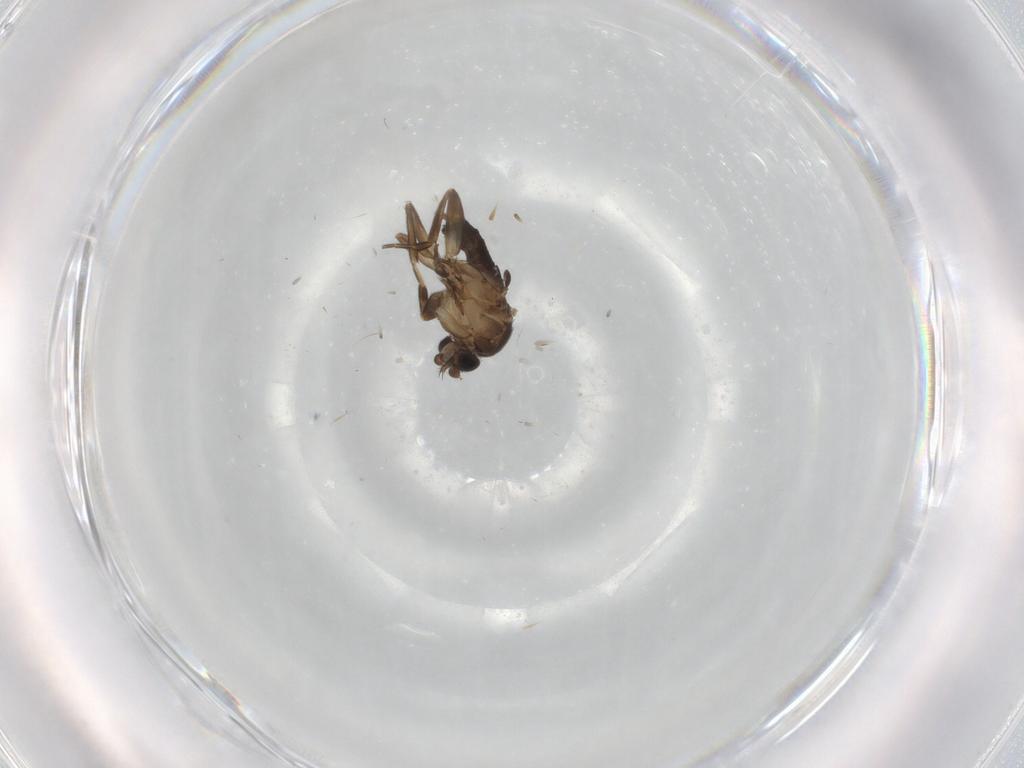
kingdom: Animalia
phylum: Arthropoda
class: Insecta
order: Diptera
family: Phoridae
